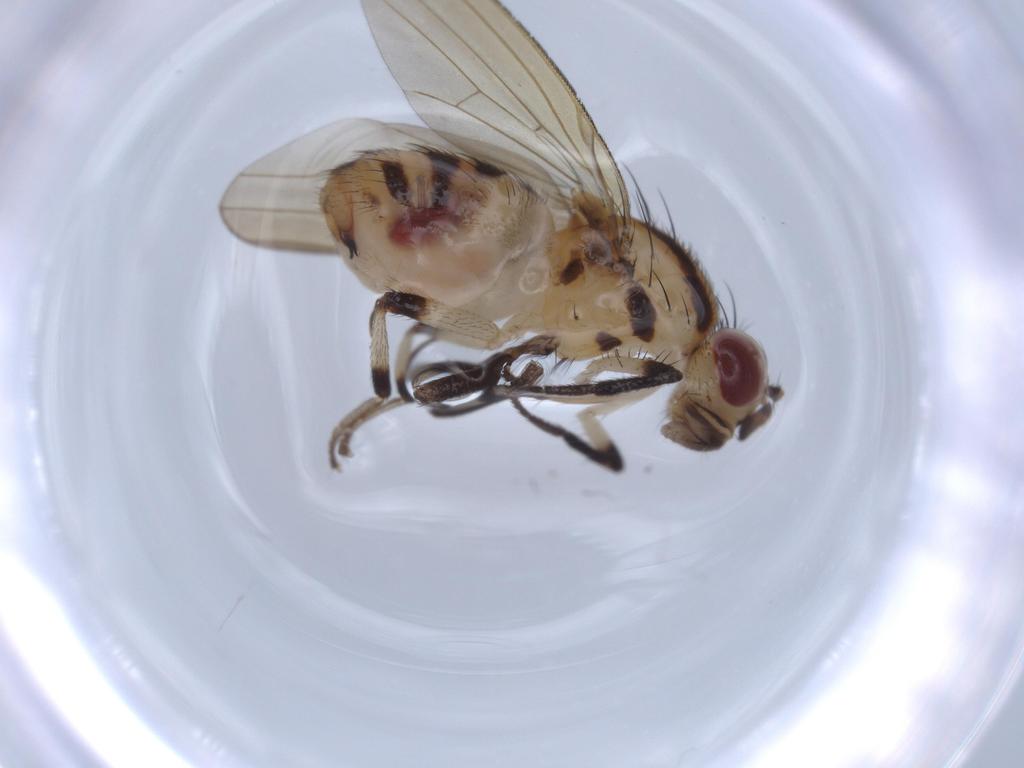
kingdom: Animalia
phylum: Arthropoda
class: Insecta
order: Diptera
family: Lauxaniidae
